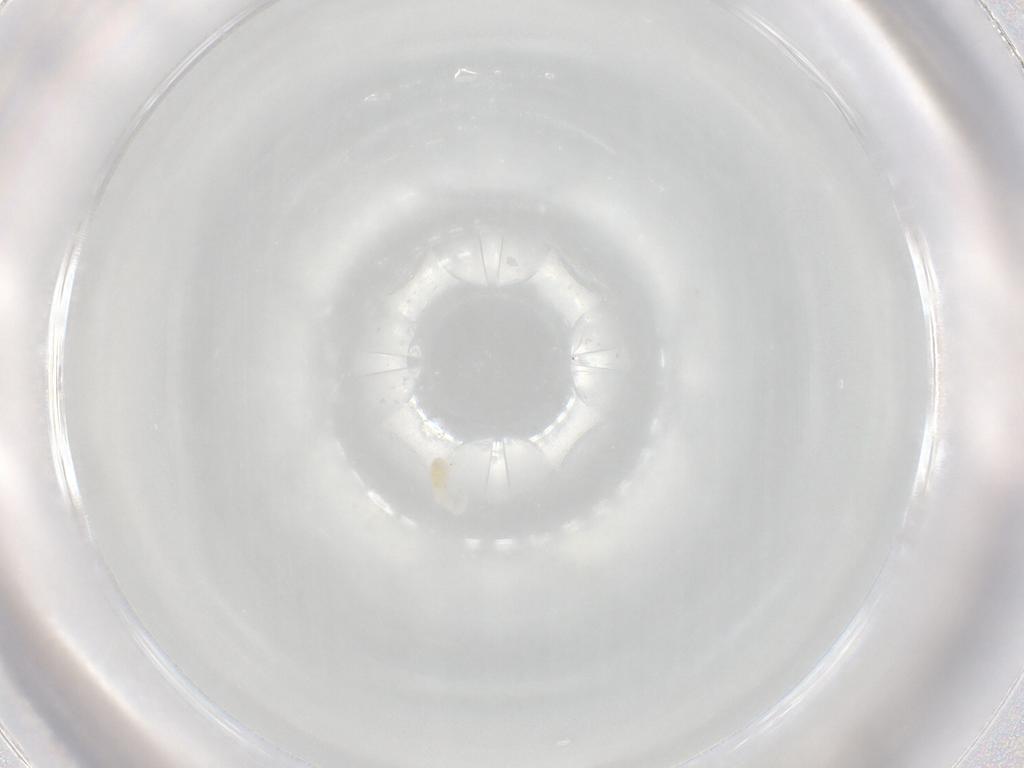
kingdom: Animalia
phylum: Arthropoda
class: Arachnida
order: Trombidiformes
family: Rhagidiidae
